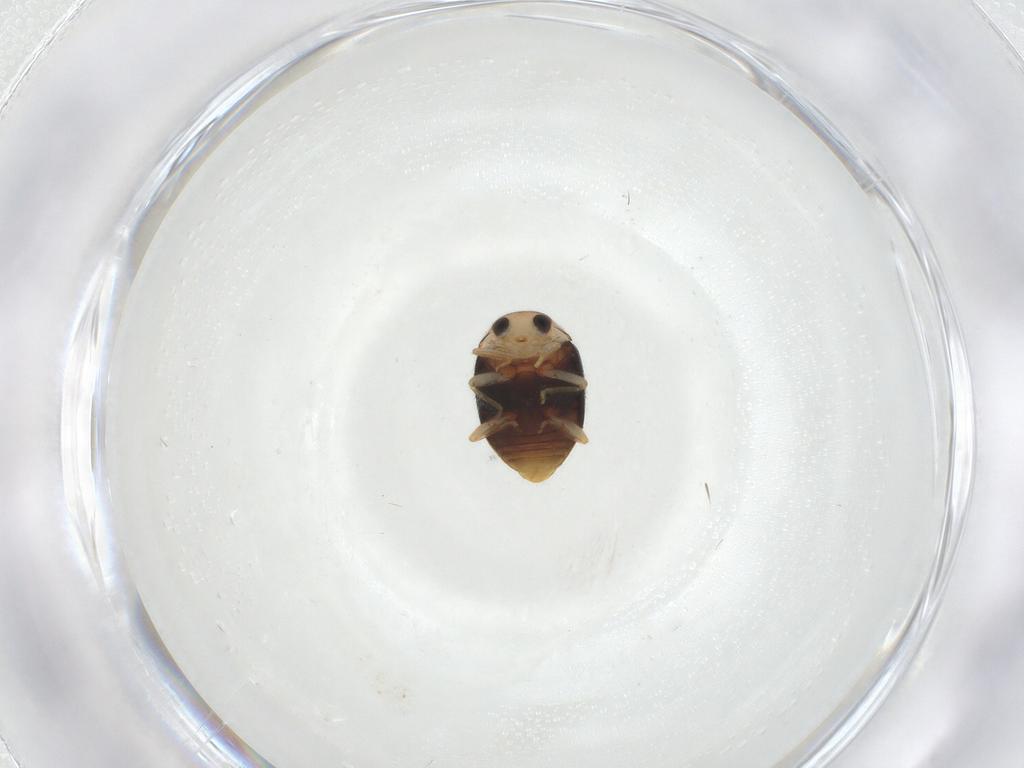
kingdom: Animalia
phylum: Arthropoda
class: Insecta
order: Coleoptera
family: Coccinellidae
